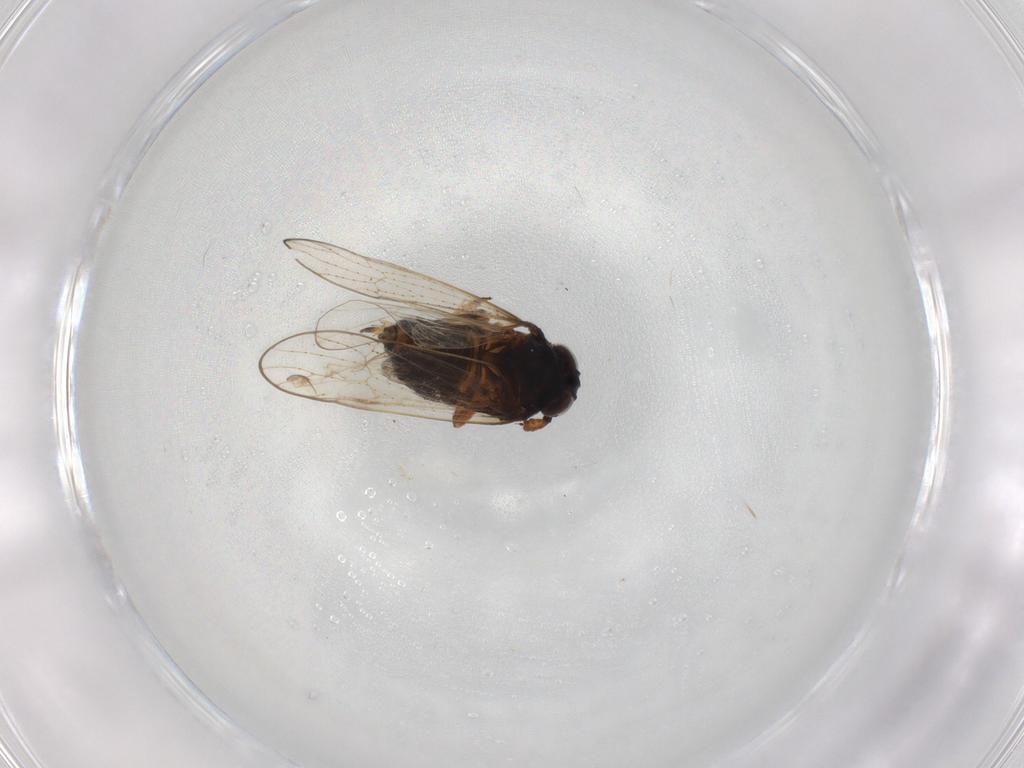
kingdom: Animalia
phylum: Arthropoda
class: Insecta
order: Hemiptera
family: Delphacidae
